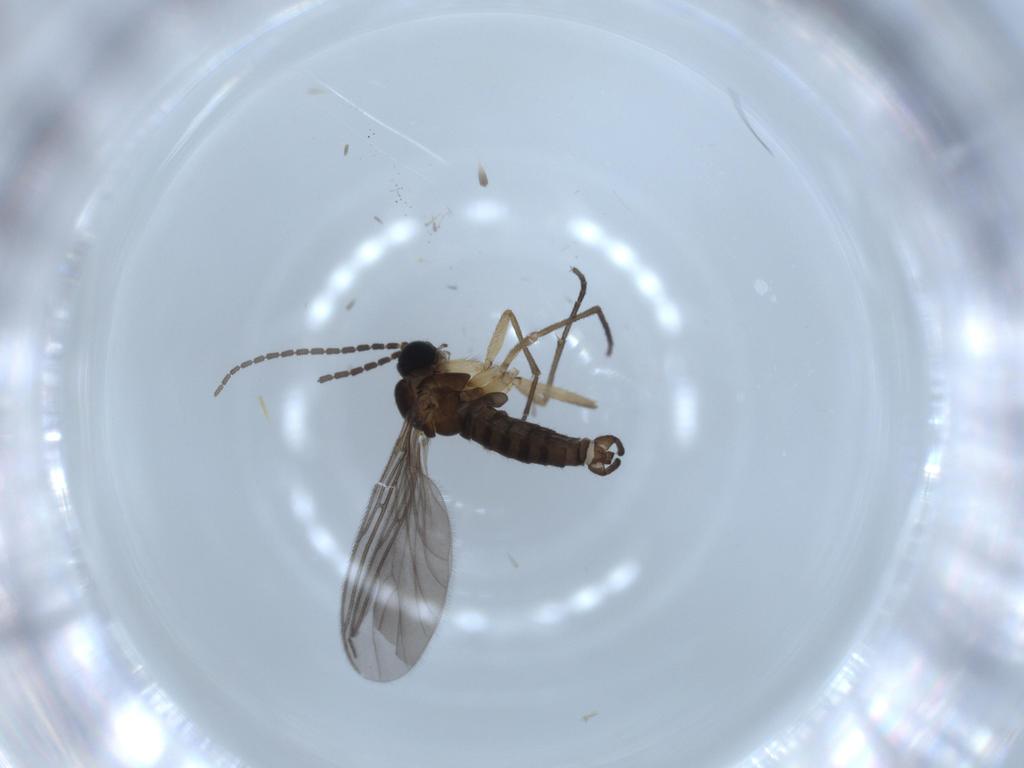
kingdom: Animalia
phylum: Arthropoda
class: Insecta
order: Diptera
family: Sciaridae
